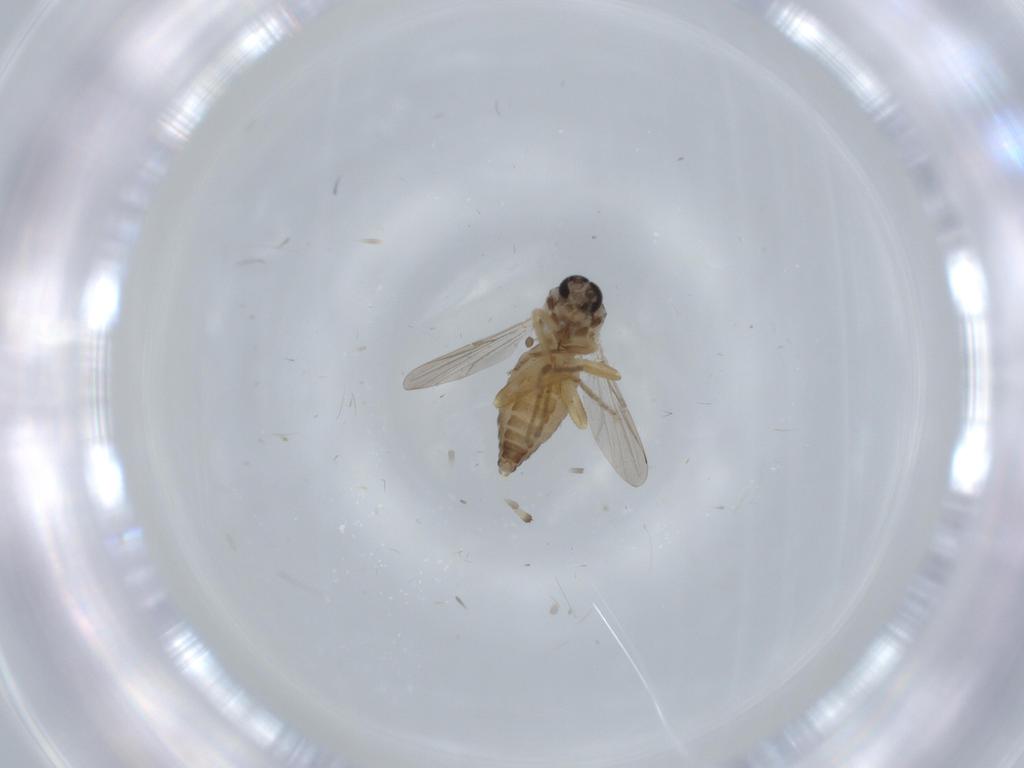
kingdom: Animalia
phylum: Arthropoda
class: Insecta
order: Diptera
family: Ceratopogonidae
